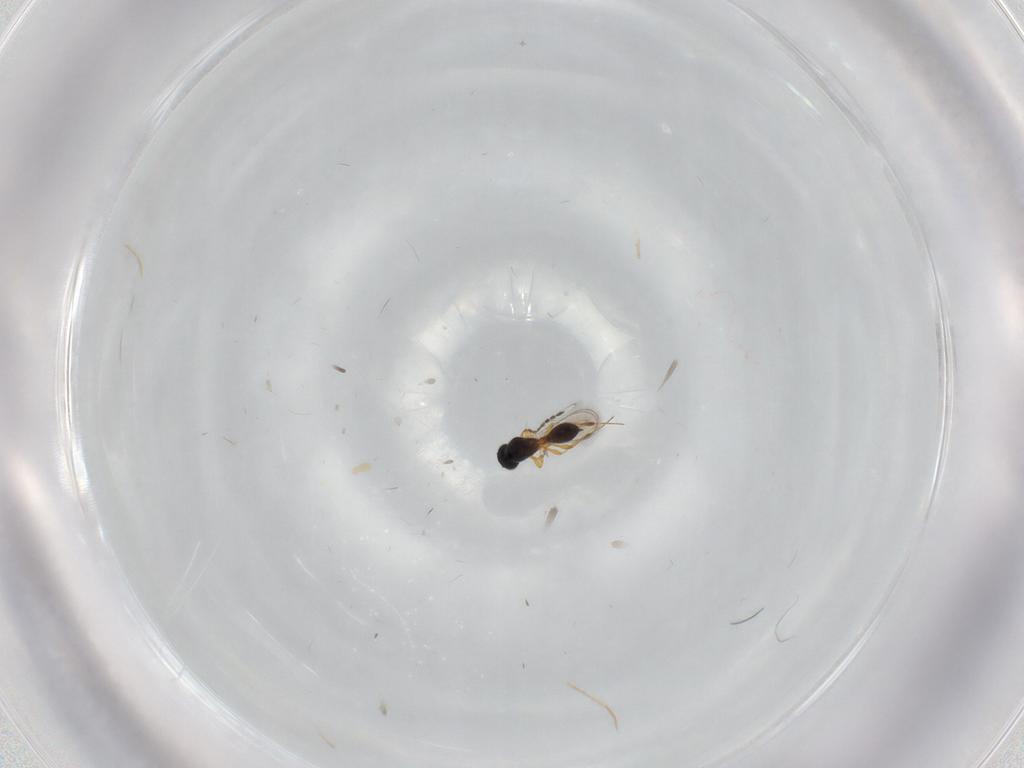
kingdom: Animalia
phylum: Arthropoda
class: Insecta
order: Hymenoptera
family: Platygastridae
